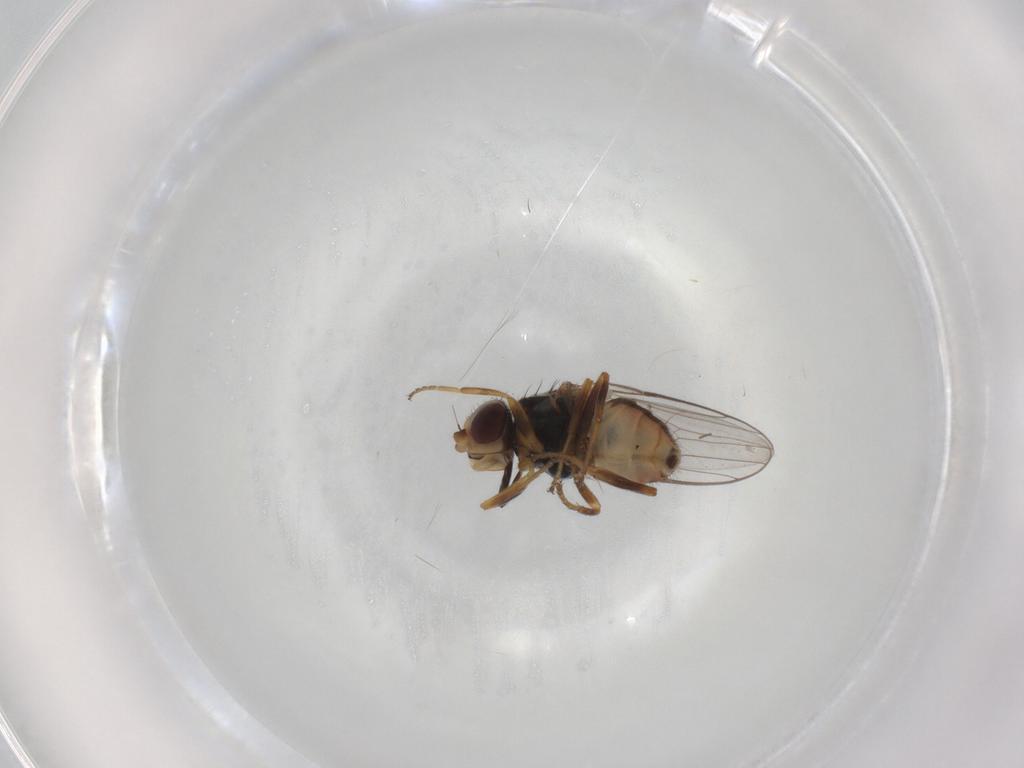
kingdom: Animalia
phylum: Arthropoda
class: Insecta
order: Diptera
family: Chloropidae
